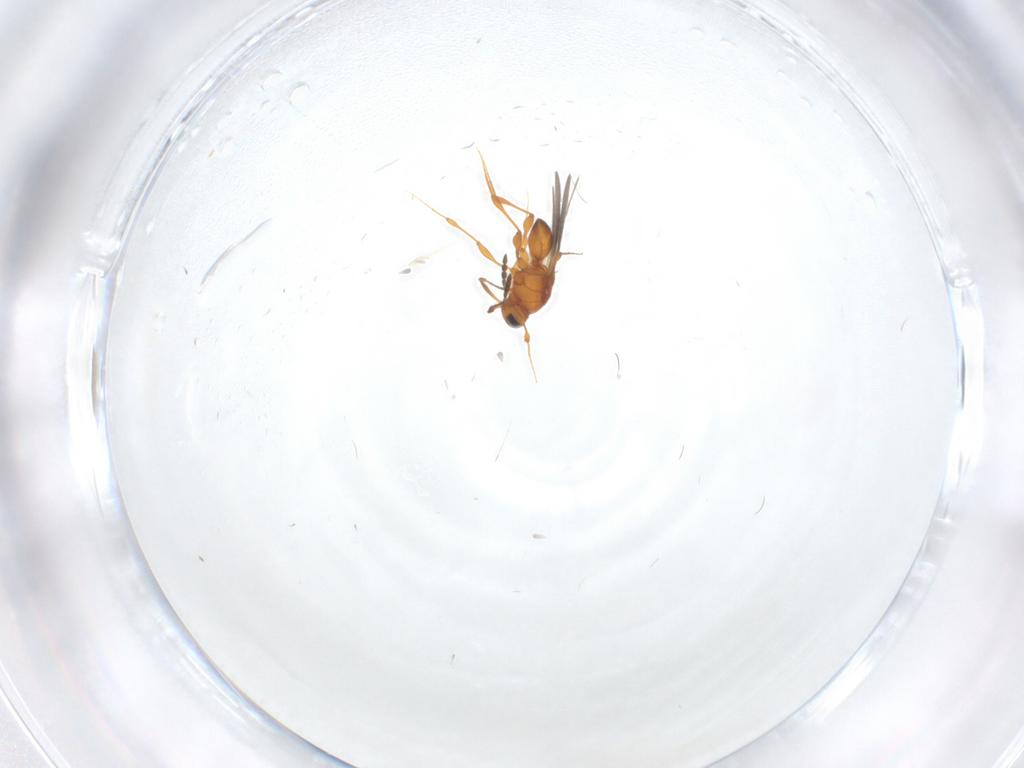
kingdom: Animalia
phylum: Arthropoda
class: Insecta
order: Hymenoptera
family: Platygastridae
